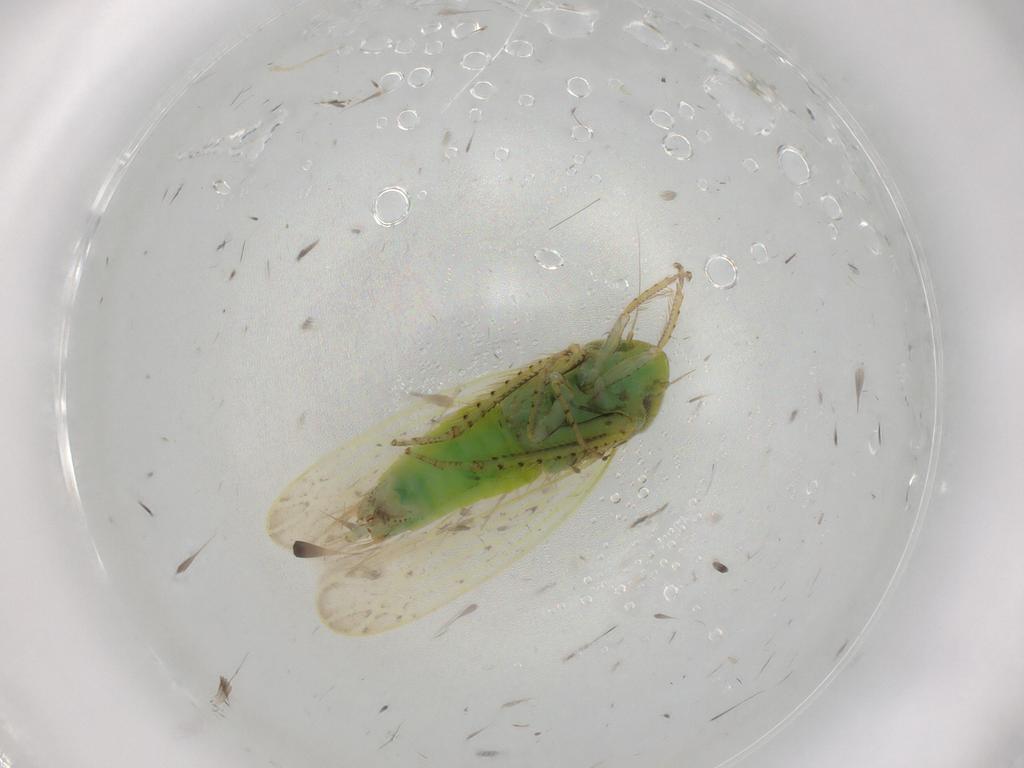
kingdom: Animalia
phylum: Arthropoda
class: Insecta
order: Hemiptera
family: Cicadellidae
